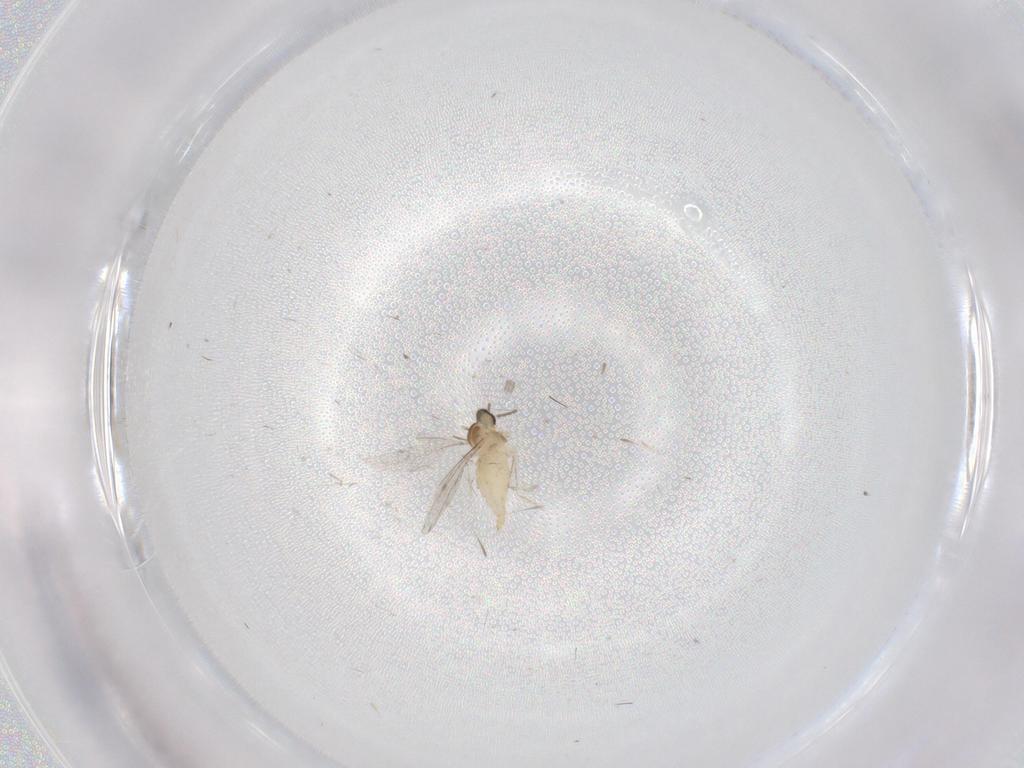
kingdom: Animalia
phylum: Arthropoda
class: Insecta
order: Diptera
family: Cecidomyiidae
